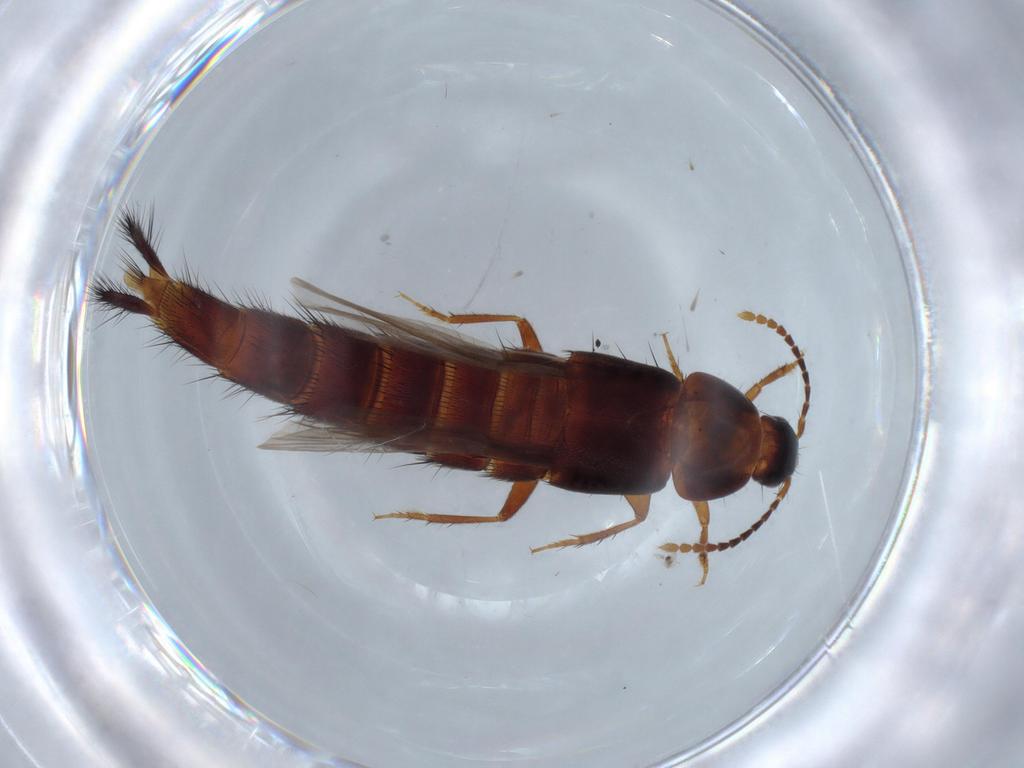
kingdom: Animalia
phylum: Arthropoda
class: Insecta
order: Coleoptera
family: Staphylinidae
